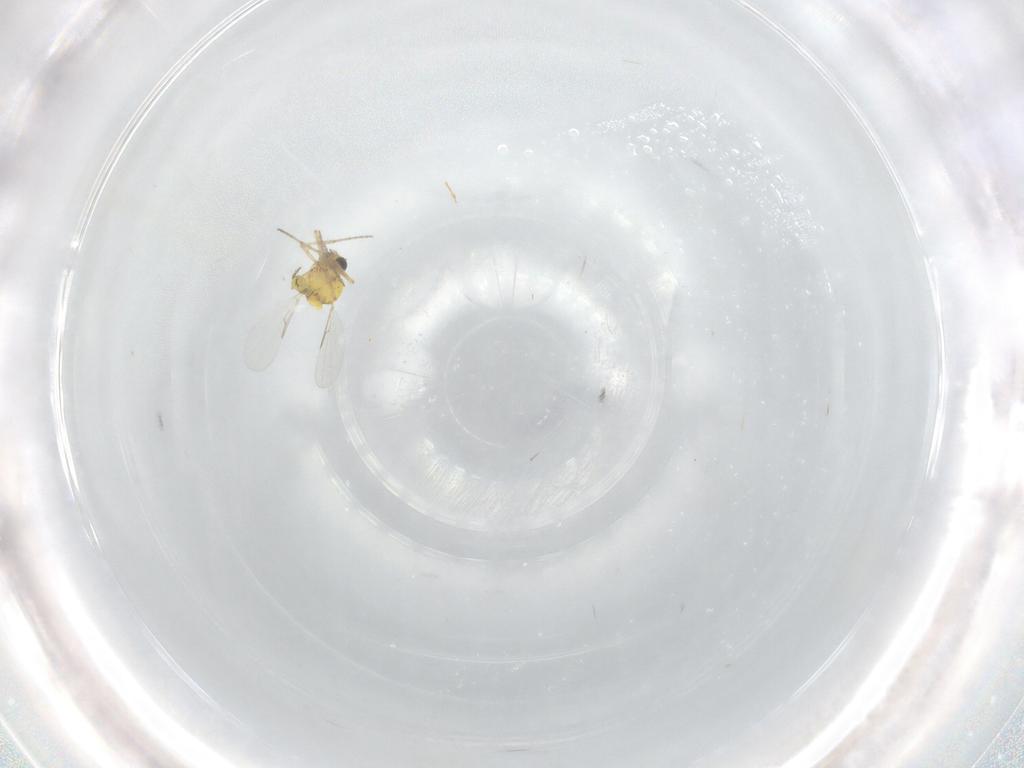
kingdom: Animalia
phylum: Arthropoda
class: Insecta
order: Diptera
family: Ceratopogonidae
